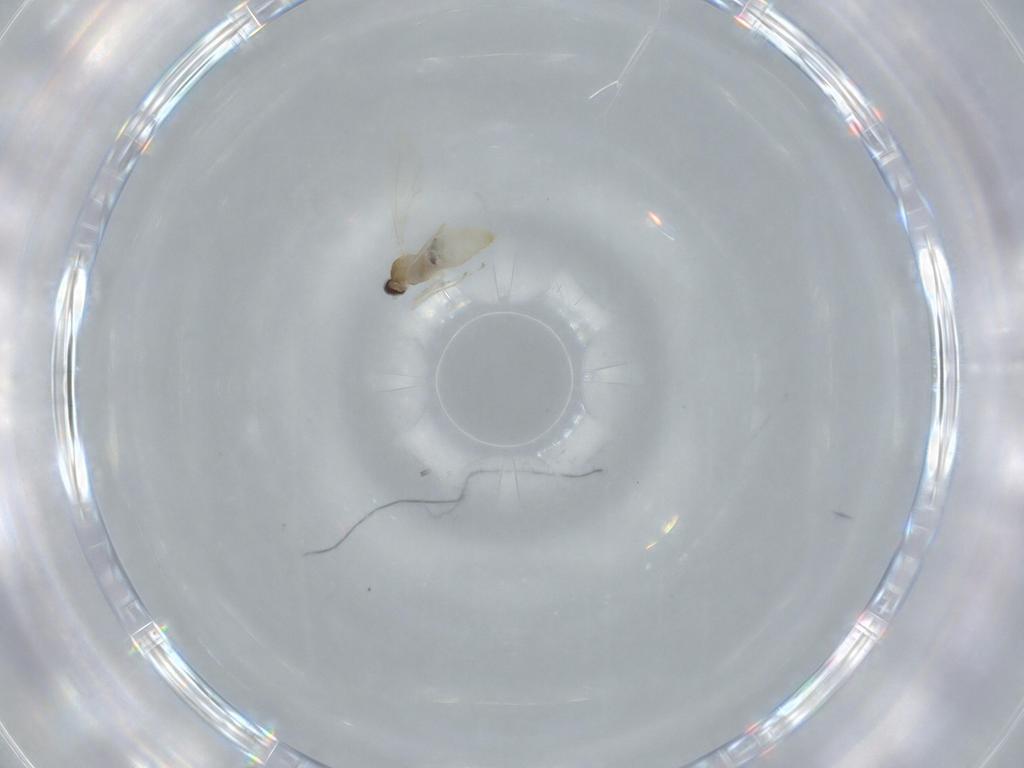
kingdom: Animalia
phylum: Arthropoda
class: Insecta
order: Diptera
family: Cecidomyiidae
